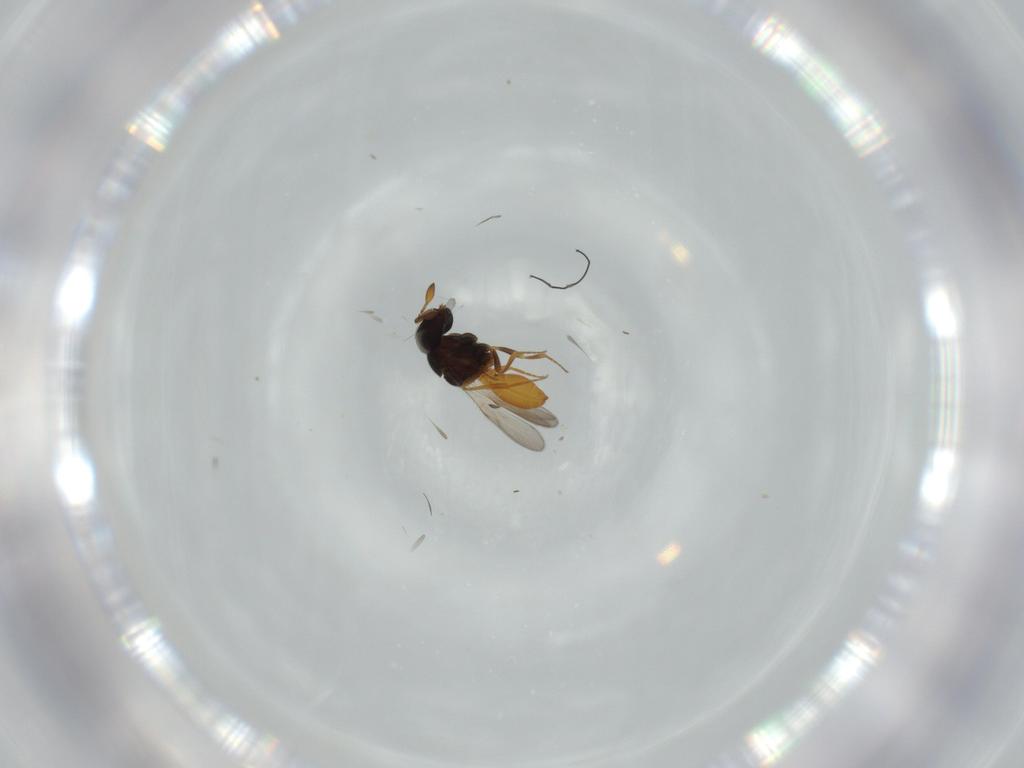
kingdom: Animalia
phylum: Arthropoda
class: Insecta
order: Hymenoptera
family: Scelionidae
